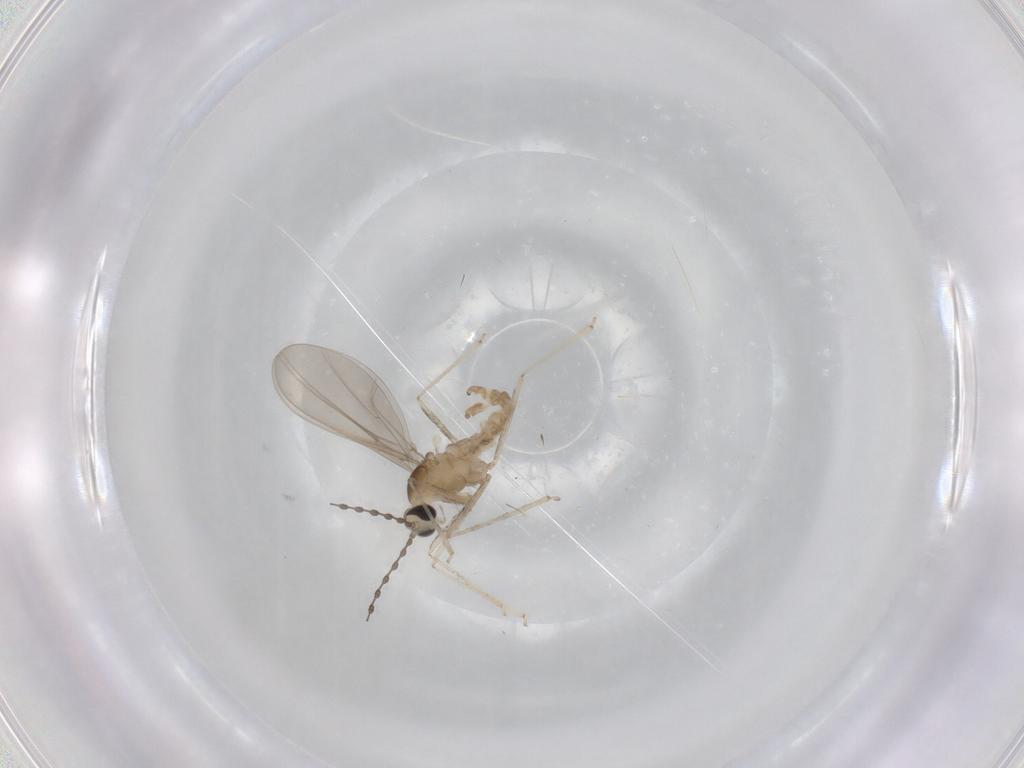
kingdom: Animalia
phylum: Arthropoda
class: Insecta
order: Diptera
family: Cecidomyiidae
